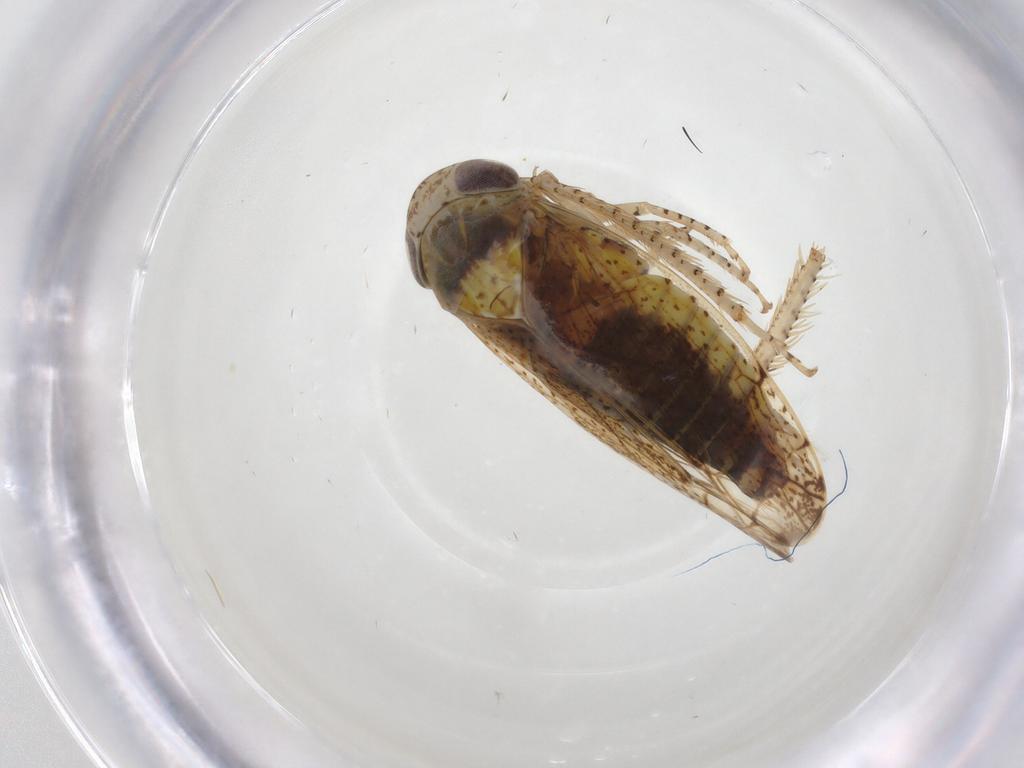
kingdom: Animalia
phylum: Arthropoda
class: Insecta
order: Hemiptera
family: Cicadellidae
